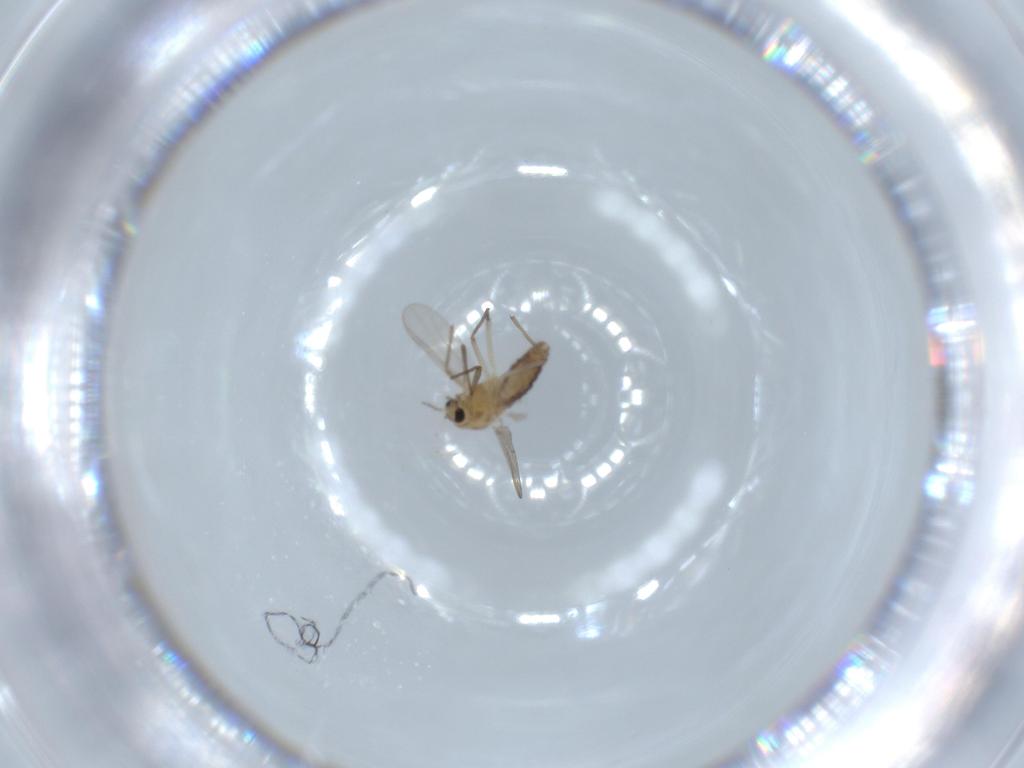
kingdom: Animalia
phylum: Arthropoda
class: Insecta
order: Diptera
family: Chironomidae
